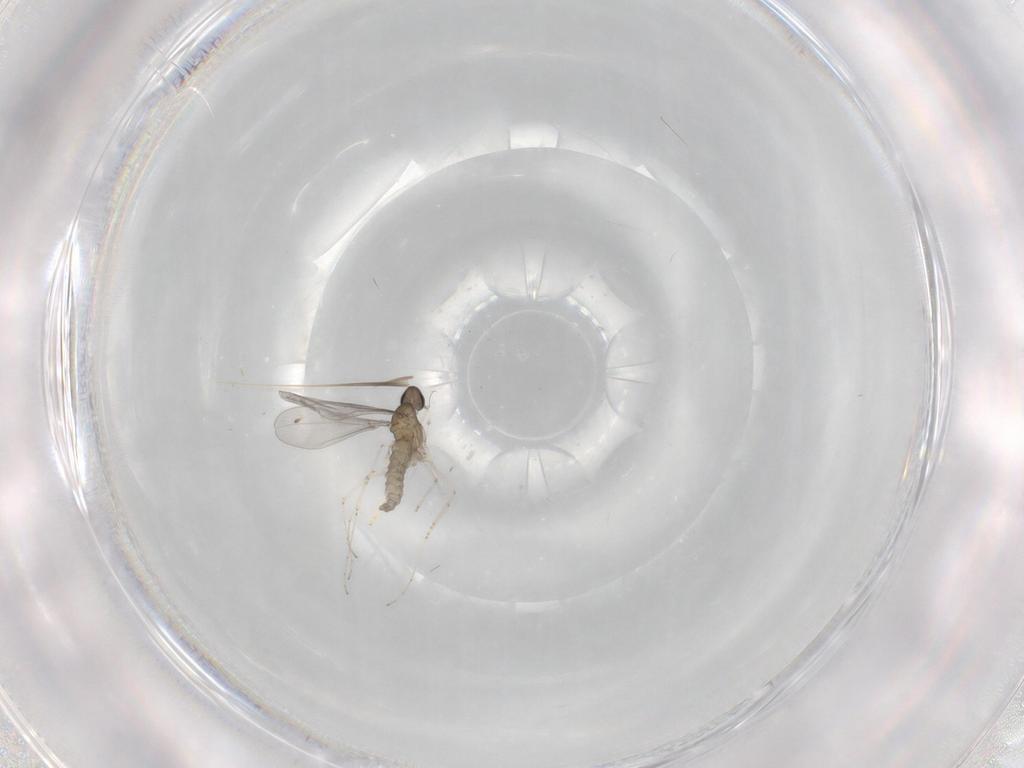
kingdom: Animalia
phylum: Arthropoda
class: Insecta
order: Diptera
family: Cecidomyiidae
